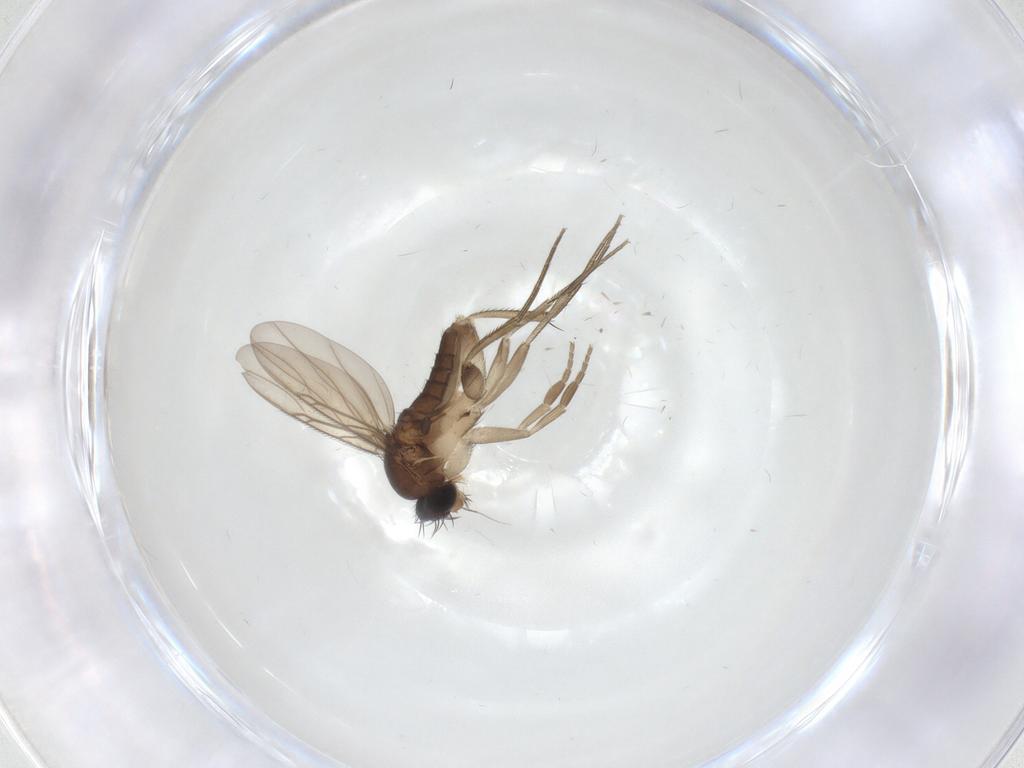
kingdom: Animalia
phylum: Arthropoda
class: Insecta
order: Diptera
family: Phoridae
